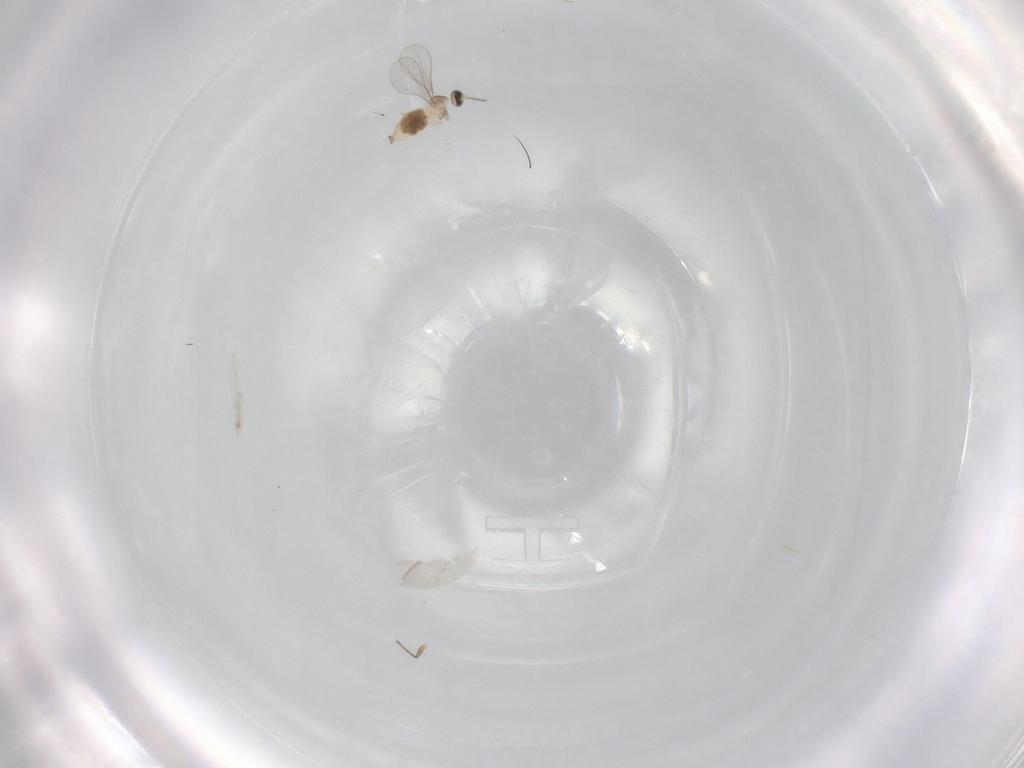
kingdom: Animalia
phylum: Arthropoda
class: Insecta
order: Diptera
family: Cecidomyiidae
